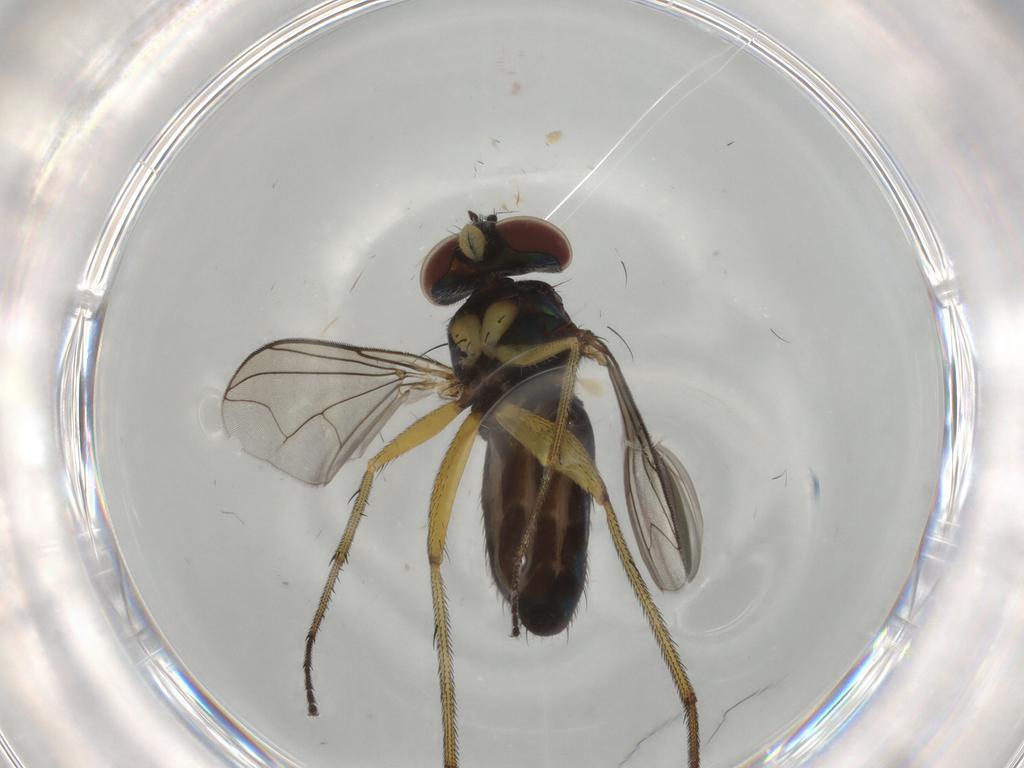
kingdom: Animalia
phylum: Arthropoda
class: Insecta
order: Diptera
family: Dolichopodidae
